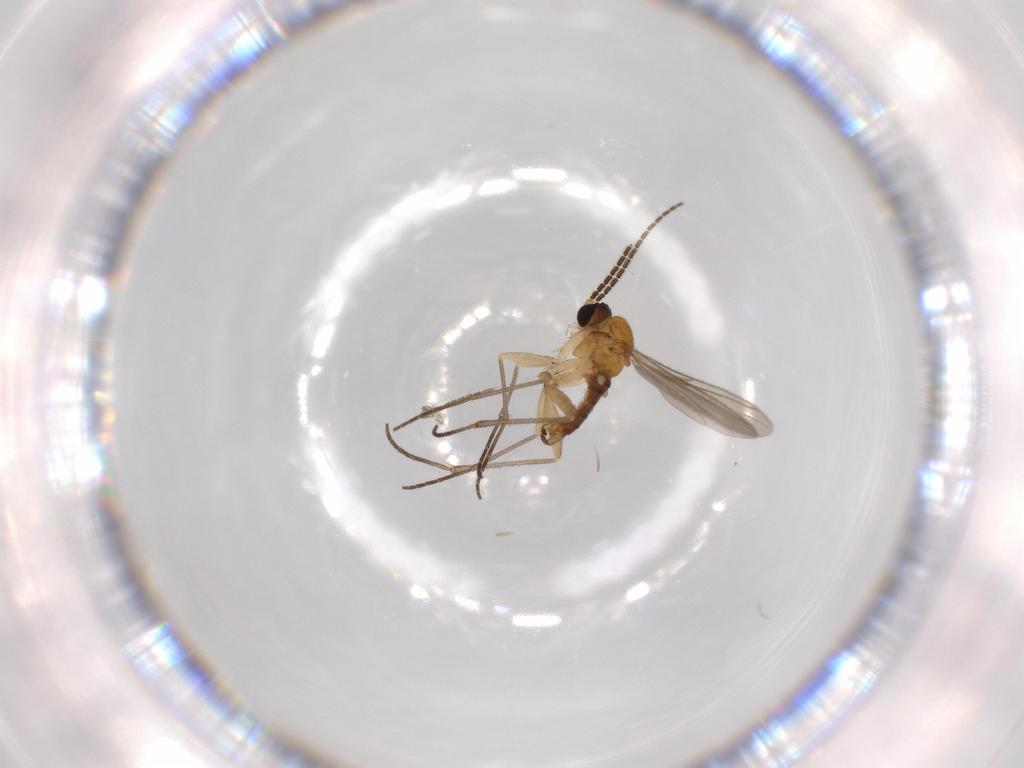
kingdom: Animalia
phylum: Arthropoda
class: Insecta
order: Diptera
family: Sciaridae
